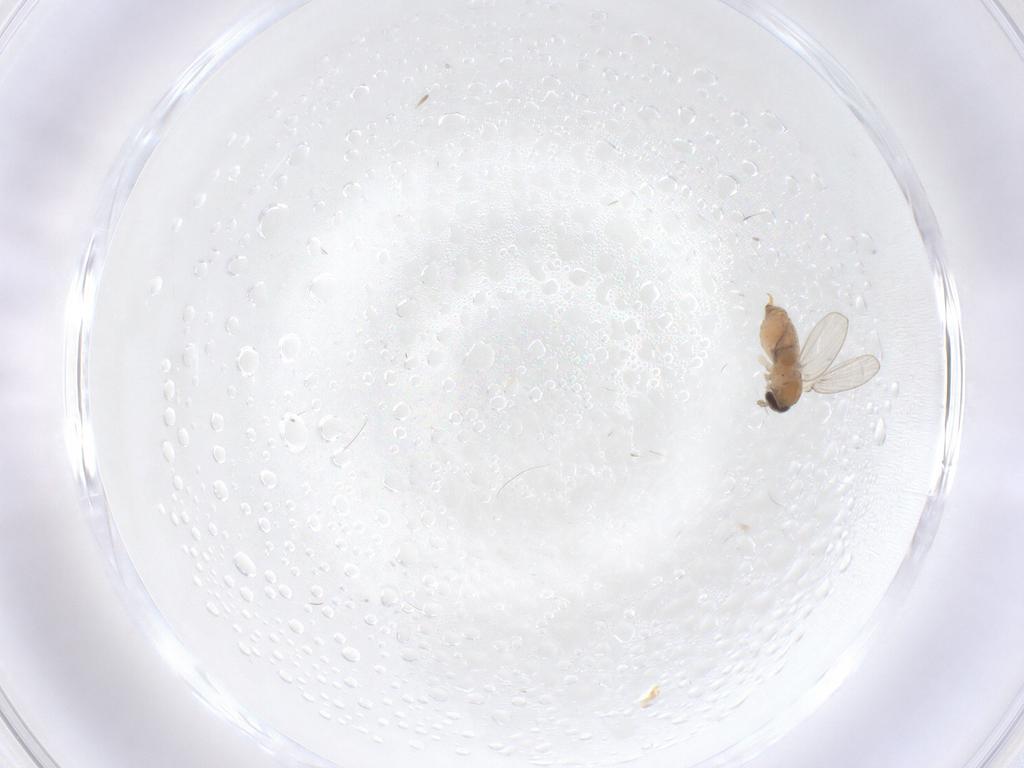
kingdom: Animalia
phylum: Arthropoda
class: Insecta
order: Diptera
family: Psychodidae
